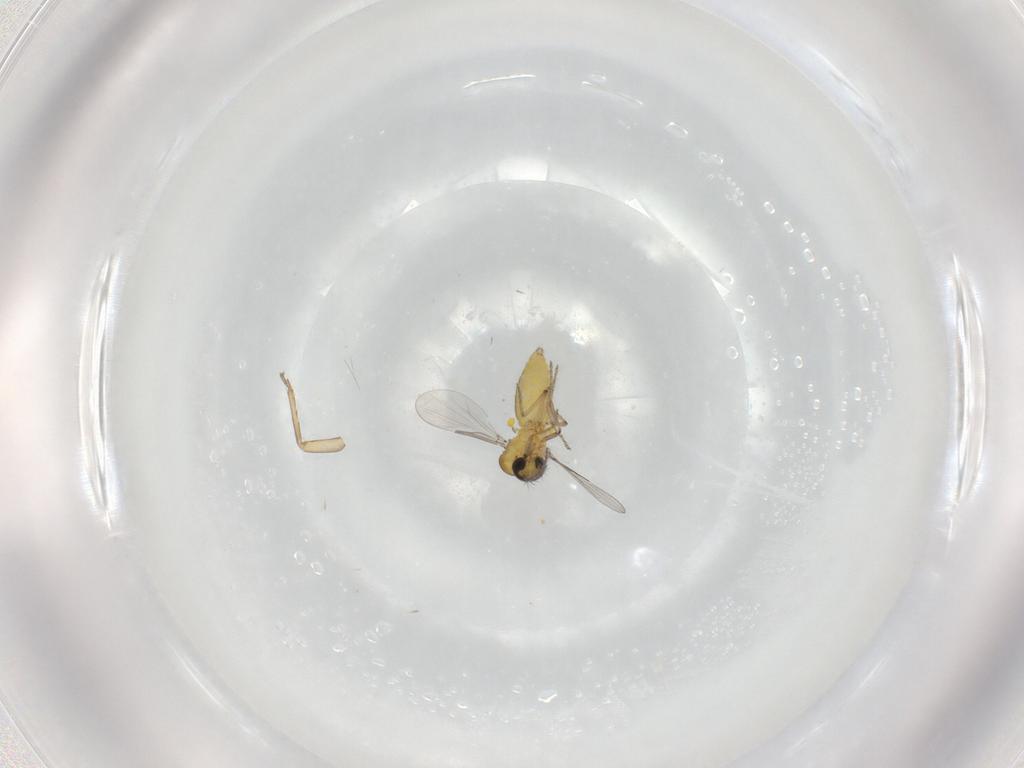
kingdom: Animalia
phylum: Arthropoda
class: Insecta
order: Diptera
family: Ceratopogonidae
